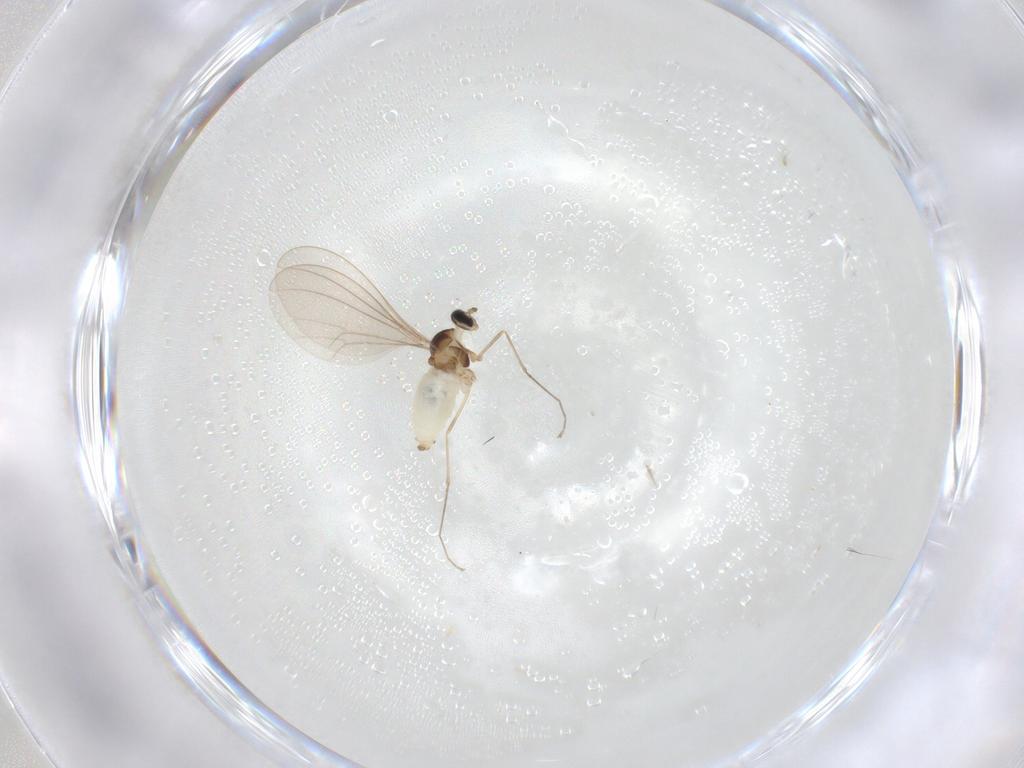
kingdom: Animalia
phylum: Arthropoda
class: Insecta
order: Diptera
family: Cecidomyiidae
